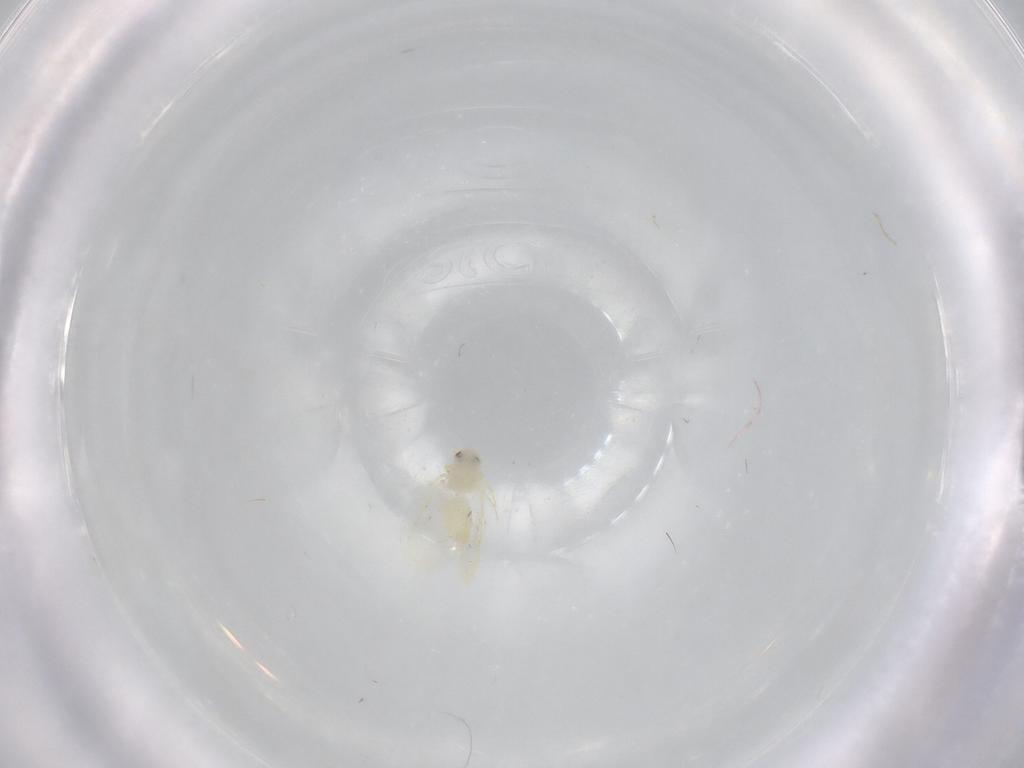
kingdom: Animalia
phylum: Arthropoda
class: Insecta
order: Hemiptera
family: Aleyrodidae
